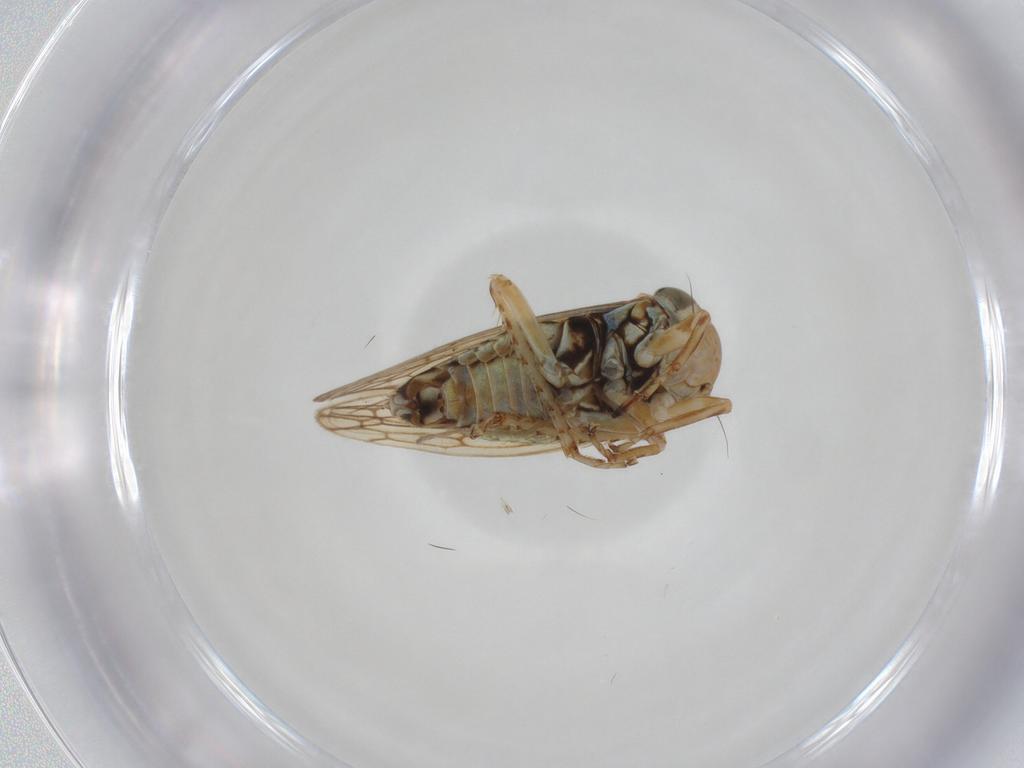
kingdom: Animalia
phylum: Arthropoda
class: Insecta
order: Hemiptera
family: Cicadellidae
